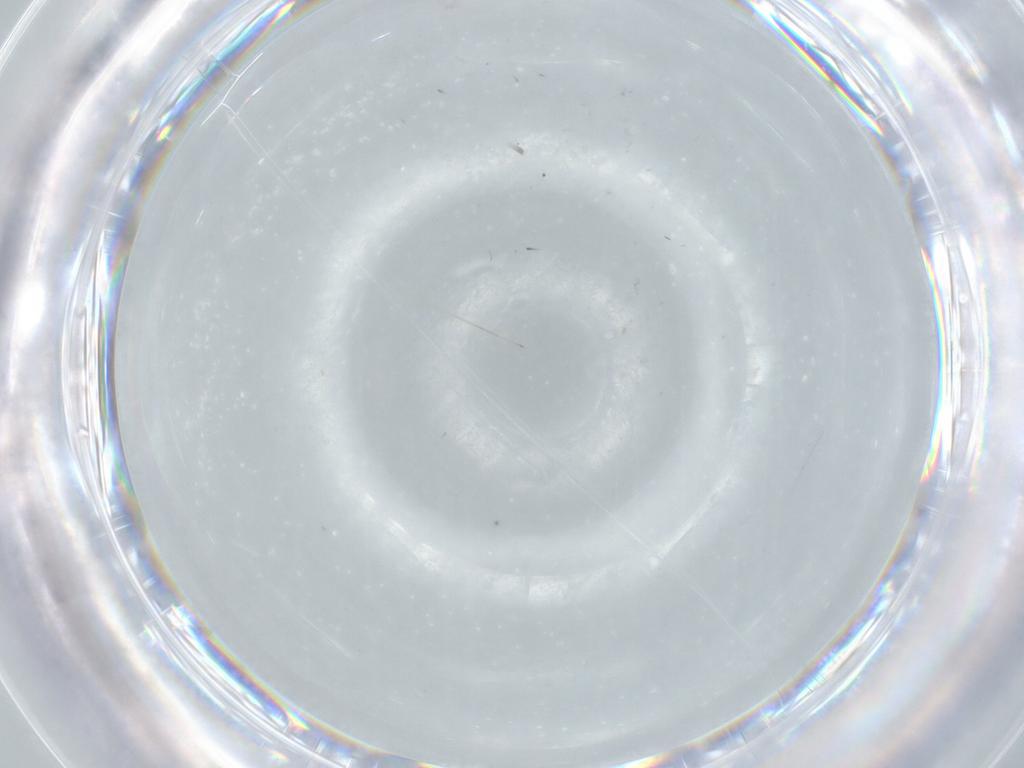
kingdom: Animalia
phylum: Arthropoda
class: Insecta
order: Diptera
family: Cecidomyiidae
